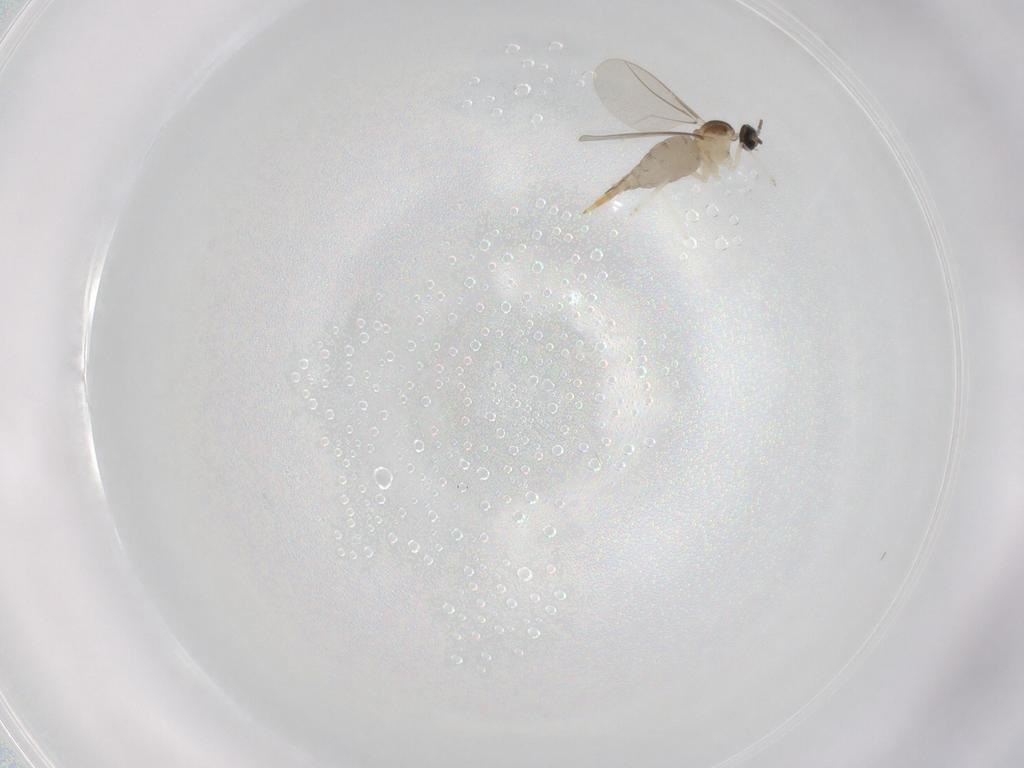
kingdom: Animalia
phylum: Arthropoda
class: Insecta
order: Diptera
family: Cecidomyiidae
